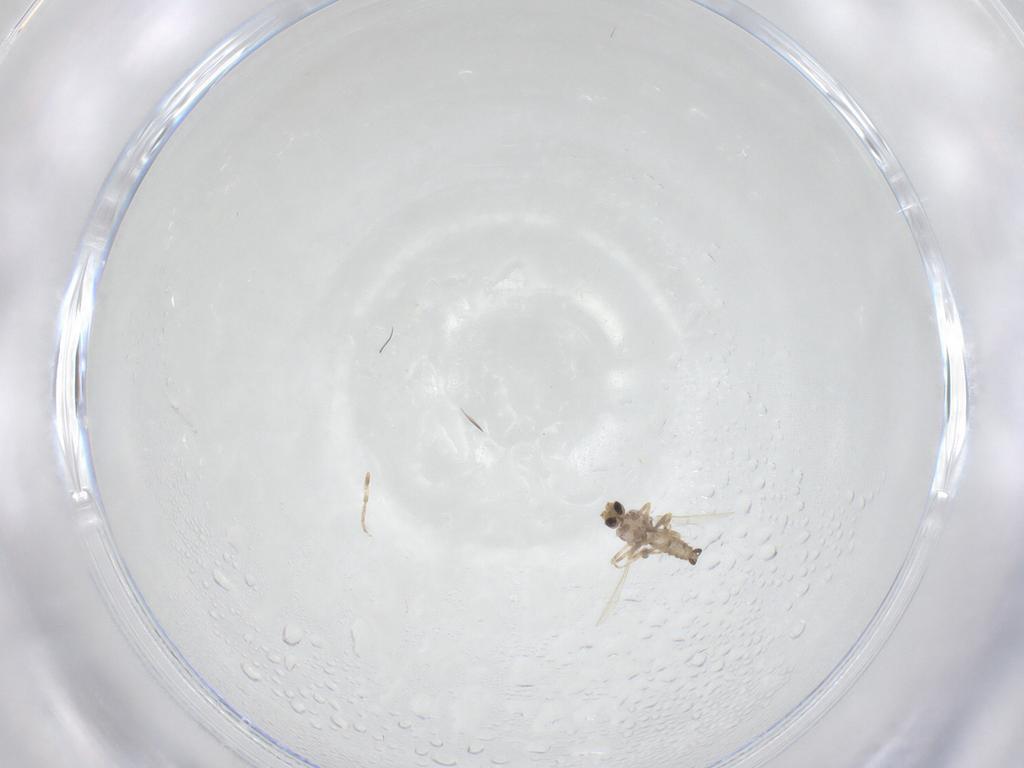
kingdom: Animalia
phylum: Arthropoda
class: Insecta
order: Diptera
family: Ceratopogonidae
